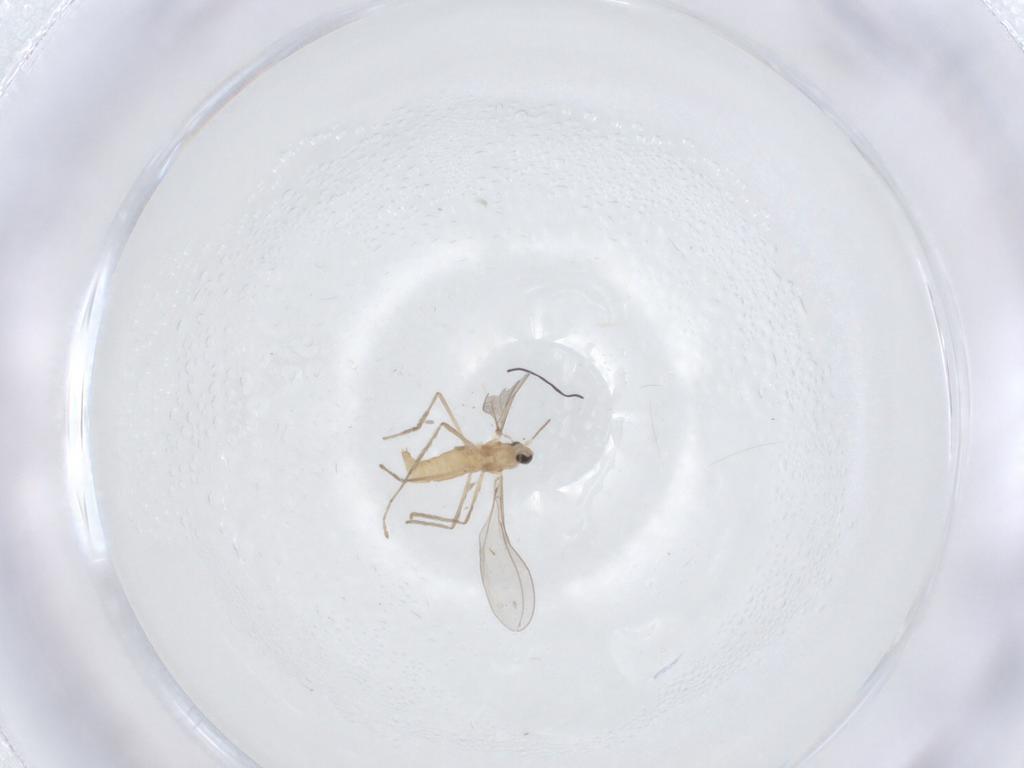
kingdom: Animalia
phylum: Arthropoda
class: Insecta
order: Diptera
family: Cecidomyiidae
